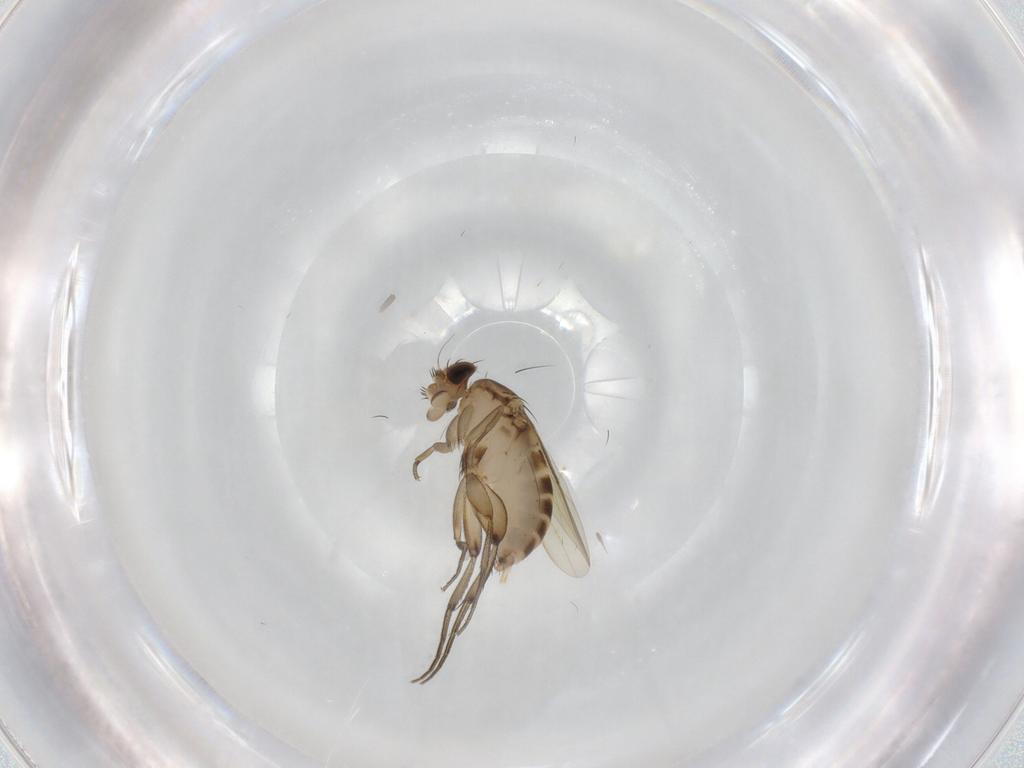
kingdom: Animalia
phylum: Arthropoda
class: Insecta
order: Diptera
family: Phoridae
